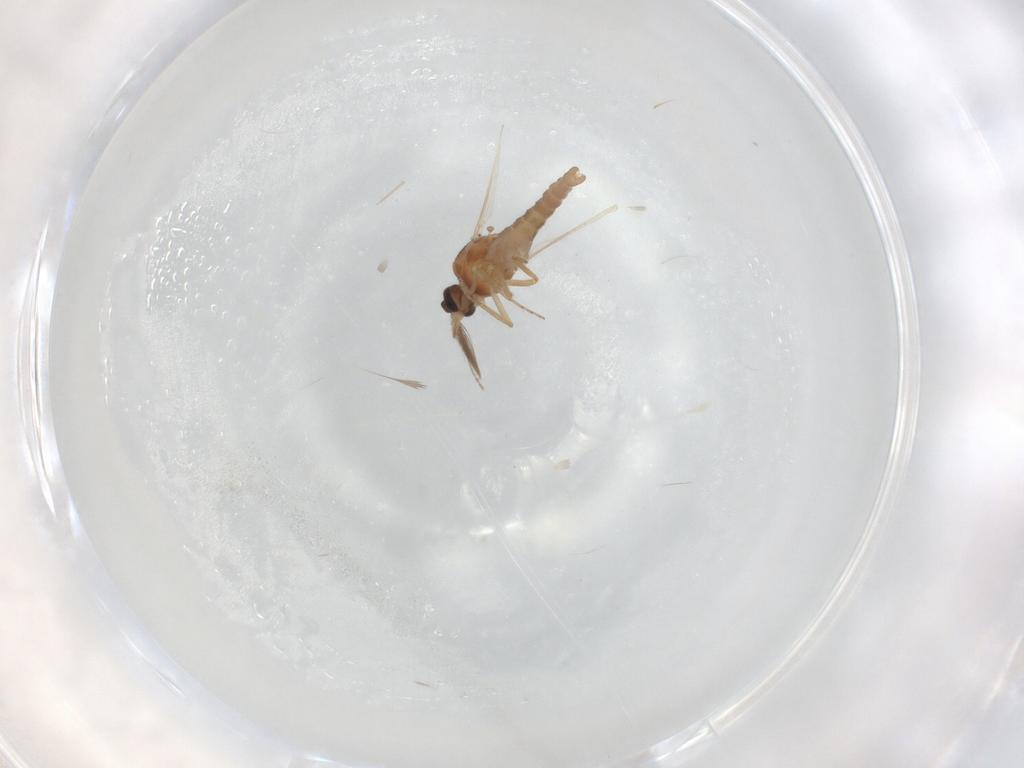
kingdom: Animalia
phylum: Arthropoda
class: Insecta
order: Diptera
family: Ceratopogonidae
